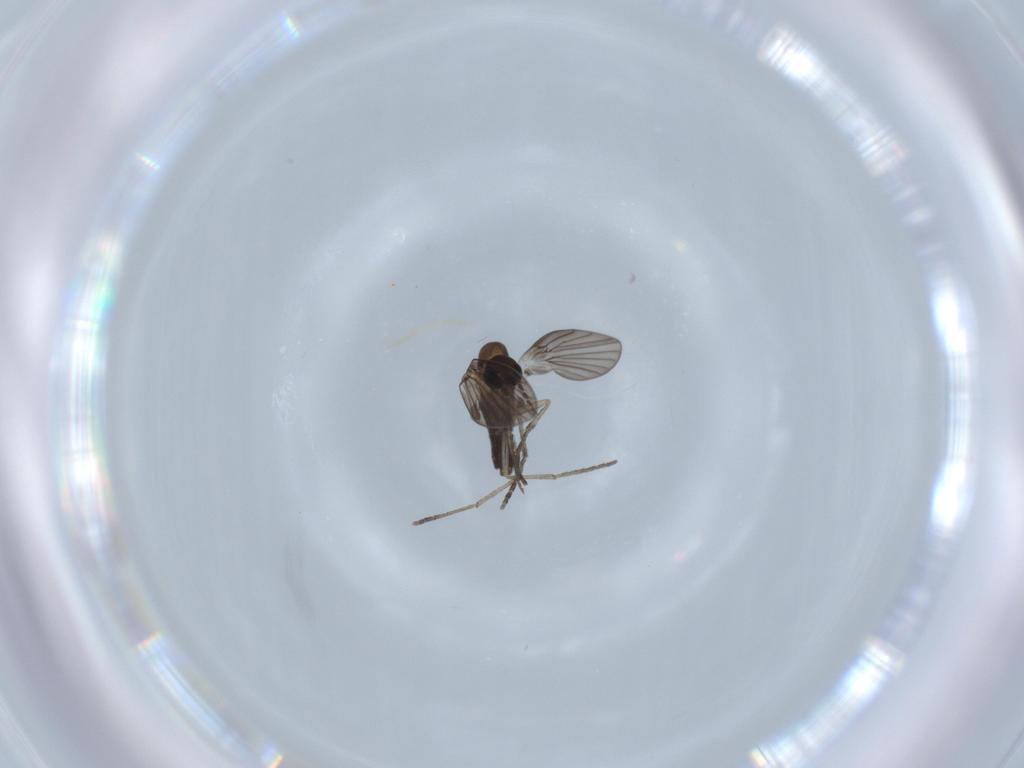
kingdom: Animalia
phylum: Arthropoda
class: Insecta
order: Diptera
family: Psychodidae
